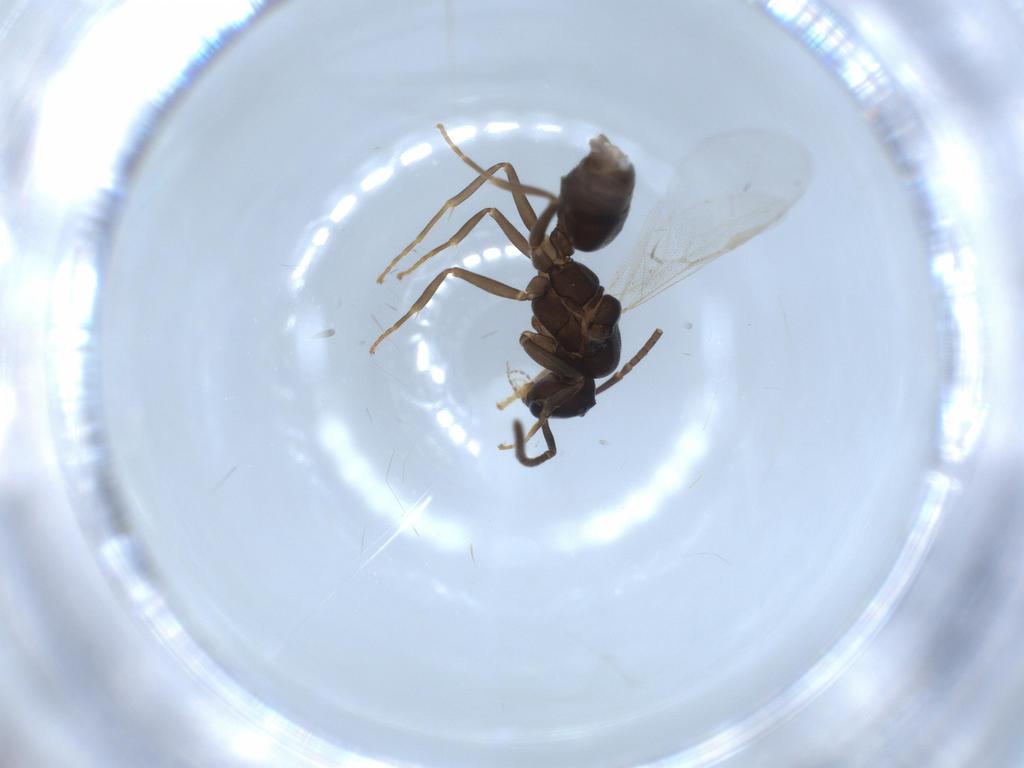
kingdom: Animalia
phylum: Arthropoda
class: Insecta
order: Hymenoptera
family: Formicidae
